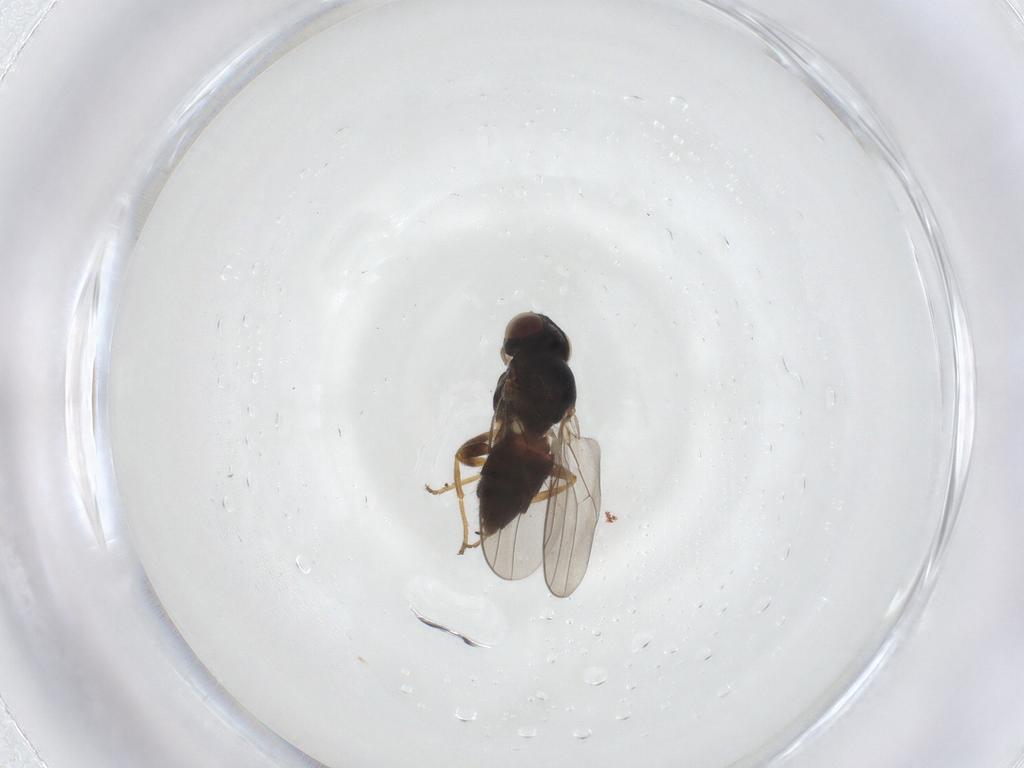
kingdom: Animalia
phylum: Arthropoda
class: Insecta
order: Diptera
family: Chloropidae
